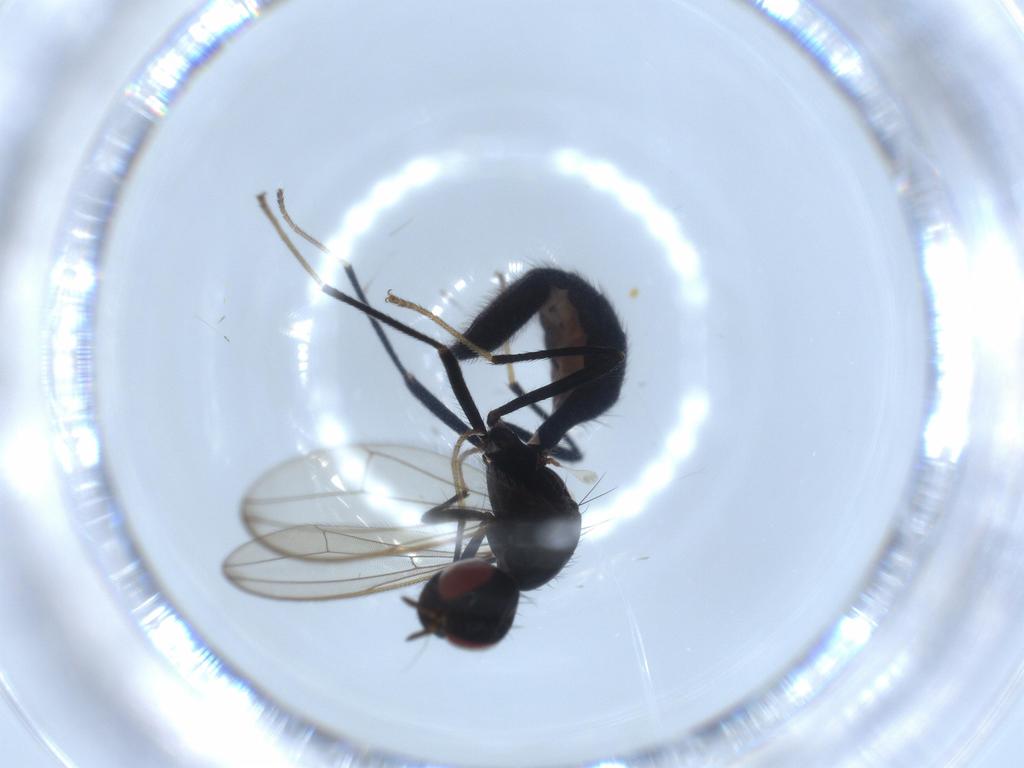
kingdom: Animalia
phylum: Arthropoda
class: Insecta
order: Diptera
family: Richardiidae
